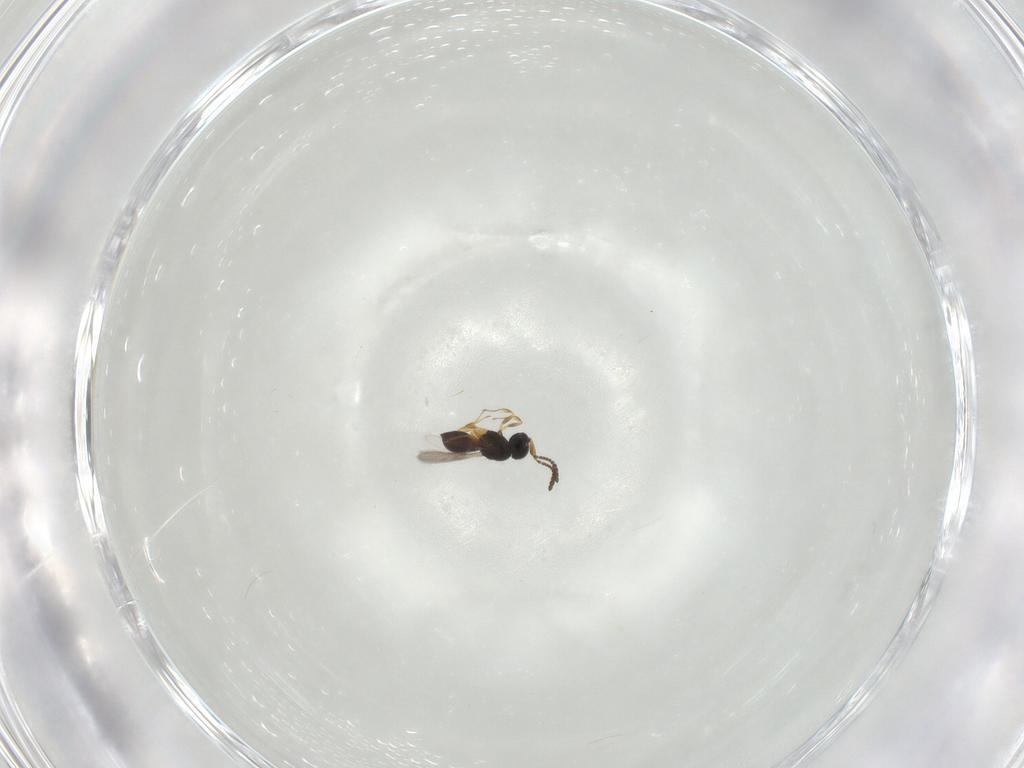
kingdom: Animalia
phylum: Arthropoda
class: Insecta
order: Hymenoptera
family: Scelionidae
